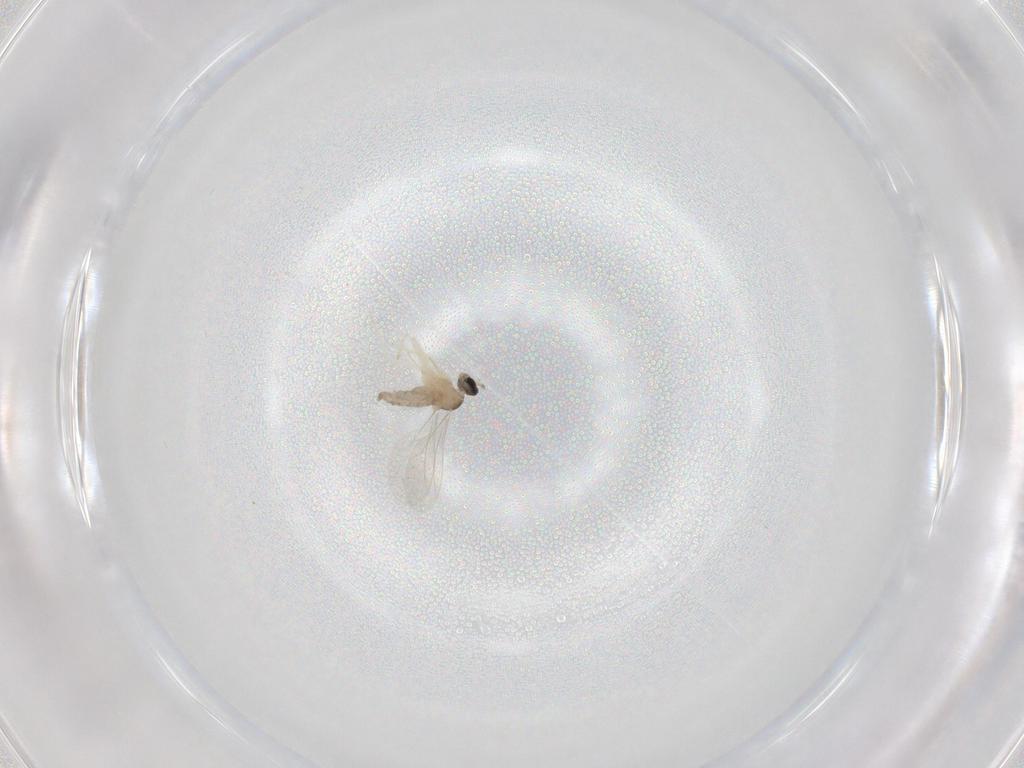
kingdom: Animalia
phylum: Arthropoda
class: Insecta
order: Diptera
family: Cecidomyiidae
